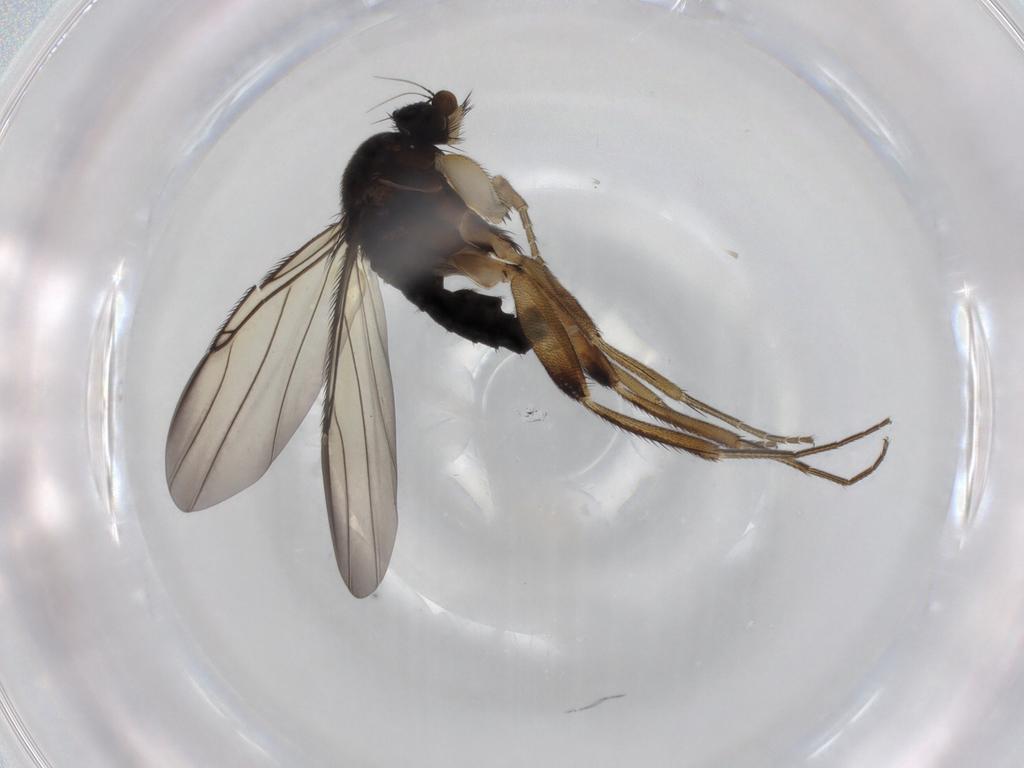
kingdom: Animalia
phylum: Arthropoda
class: Insecta
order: Diptera
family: Phoridae
